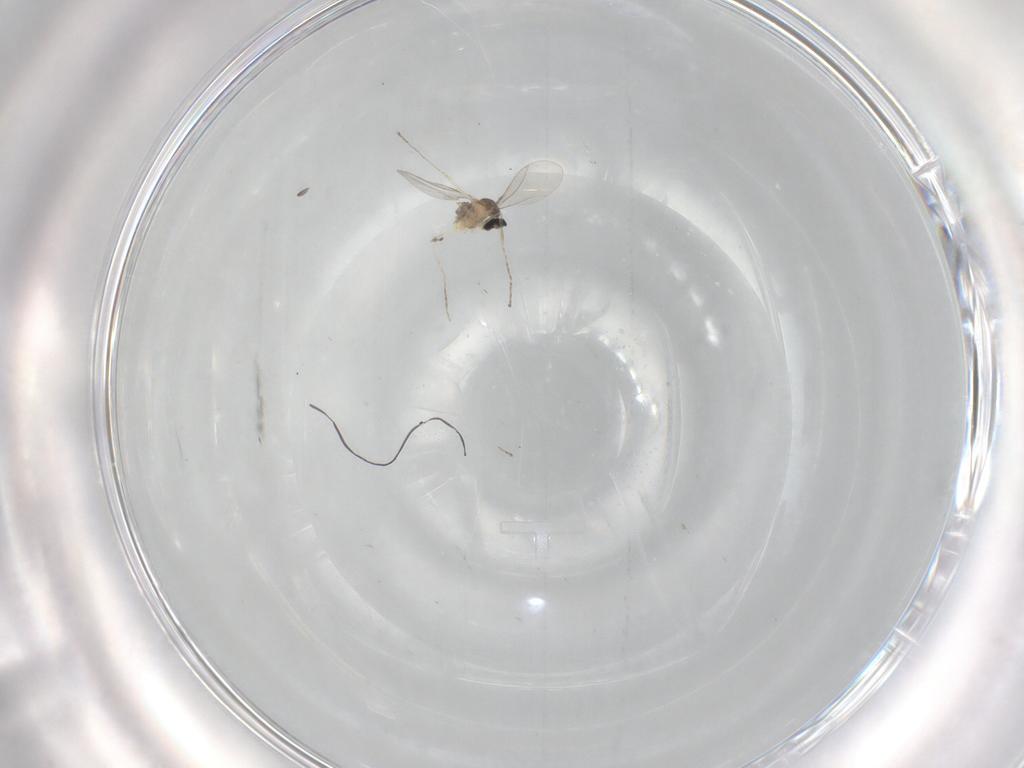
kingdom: Animalia
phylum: Arthropoda
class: Insecta
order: Diptera
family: Cecidomyiidae
